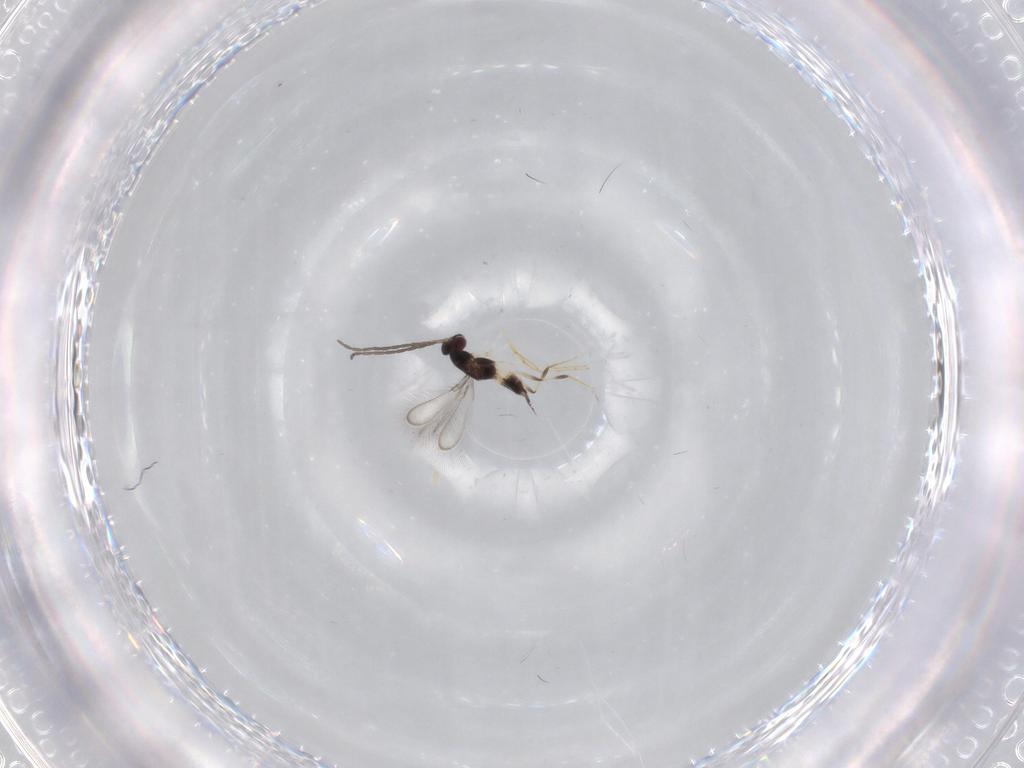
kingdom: Animalia
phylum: Arthropoda
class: Insecta
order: Hymenoptera
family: Mymaridae
